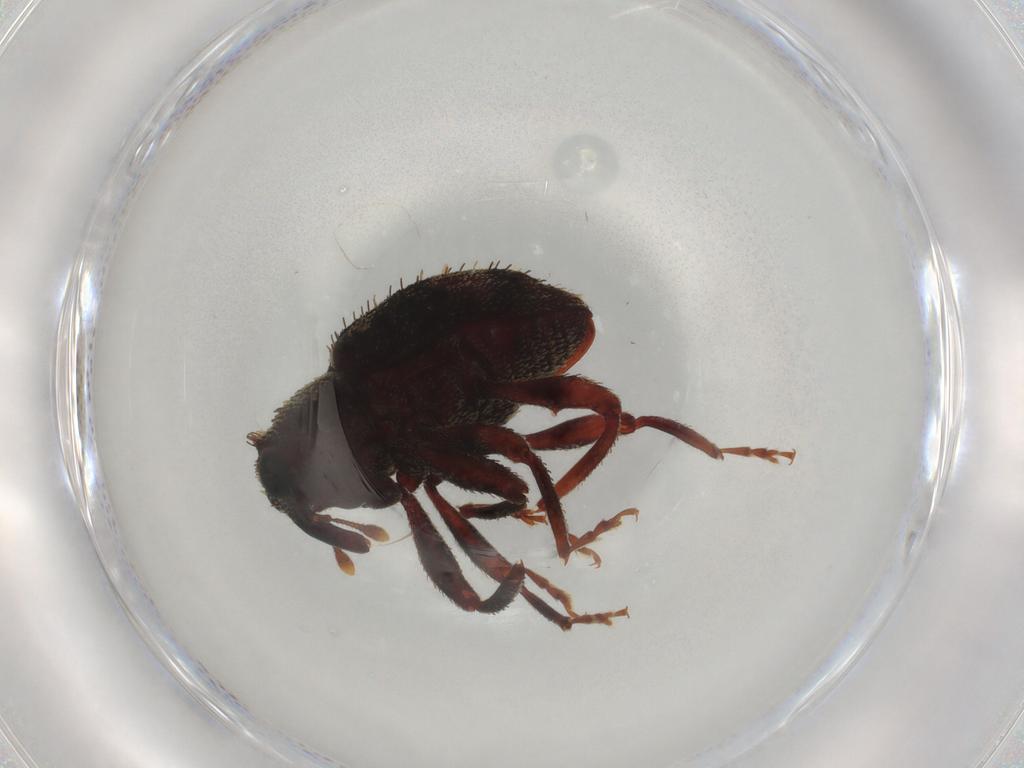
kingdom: Animalia
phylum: Arthropoda
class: Insecta
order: Coleoptera
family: Curculionidae
